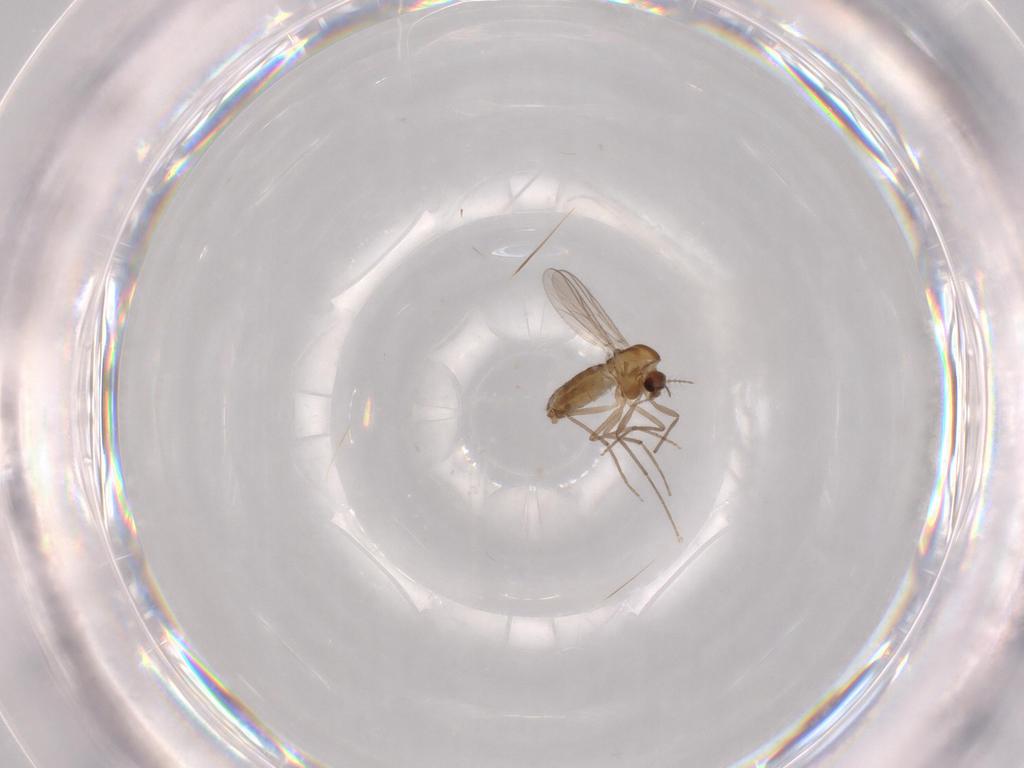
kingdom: Animalia
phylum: Arthropoda
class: Insecta
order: Diptera
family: Chironomidae
